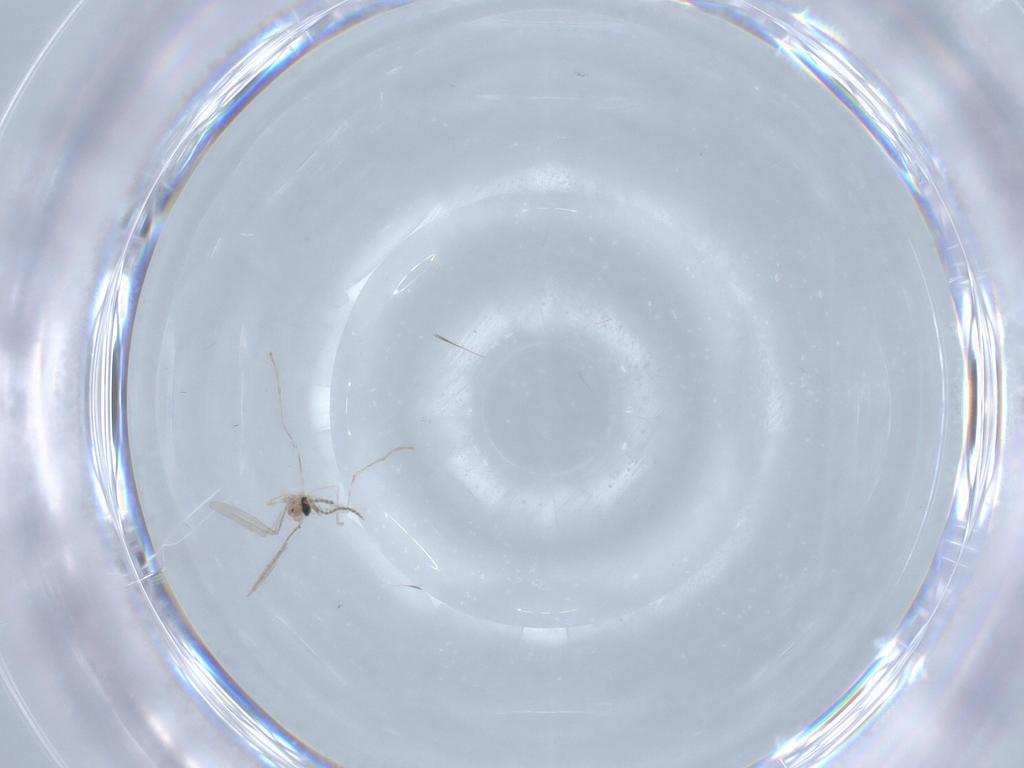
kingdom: Animalia
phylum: Arthropoda
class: Insecta
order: Diptera
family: Cecidomyiidae
